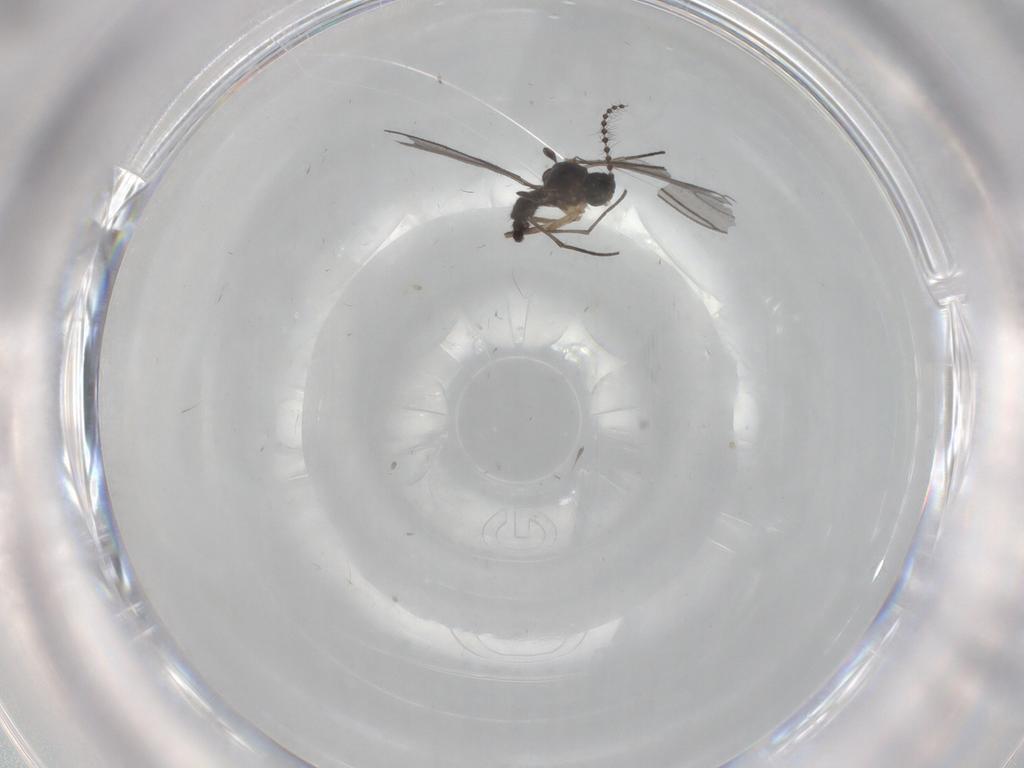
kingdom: Animalia
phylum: Arthropoda
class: Insecta
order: Diptera
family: Sciaridae
